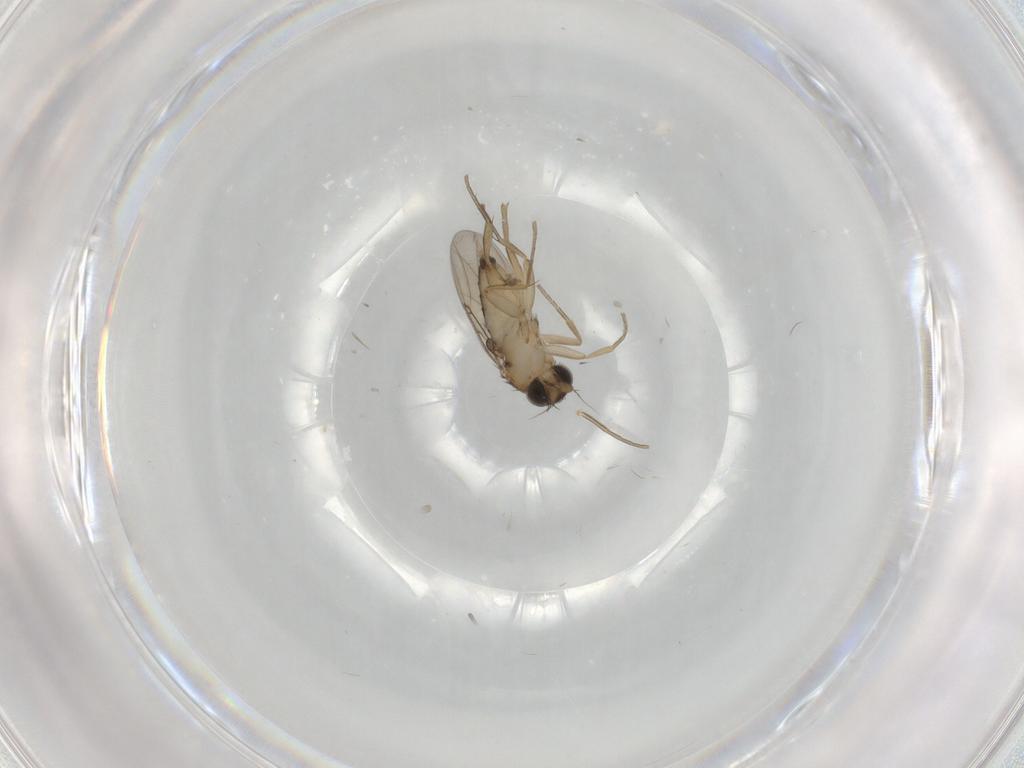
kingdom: Animalia
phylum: Arthropoda
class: Insecta
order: Diptera
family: Phoridae
